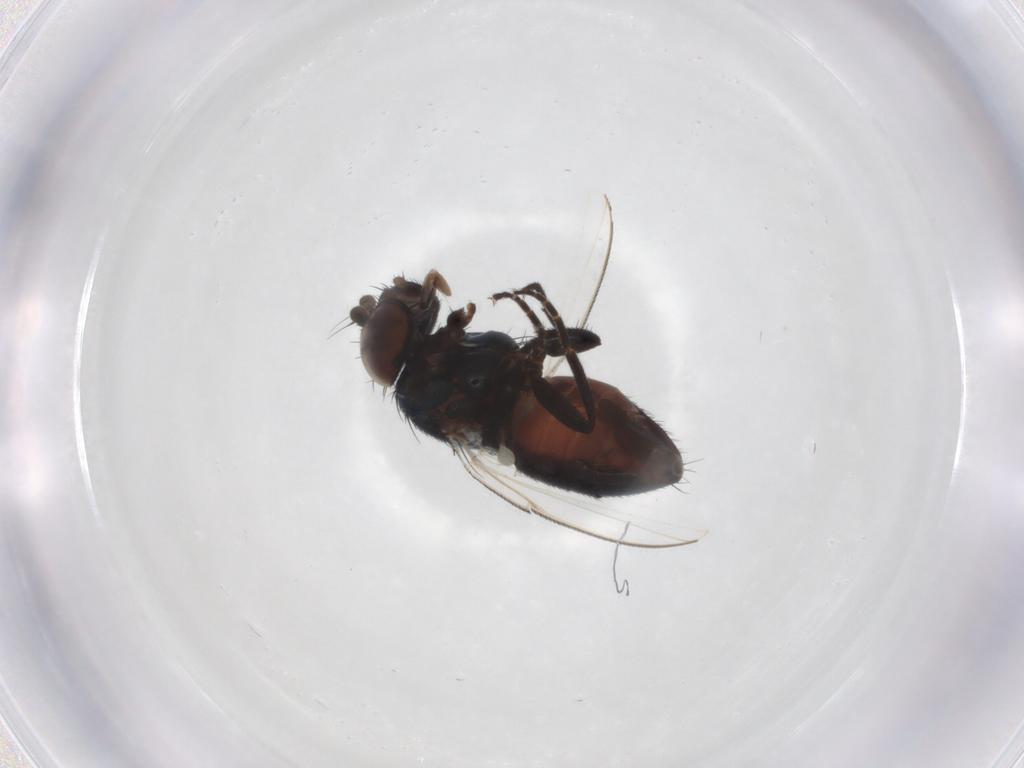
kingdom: Animalia
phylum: Arthropoda
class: Insecta
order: Diptera
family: Milichiidae
